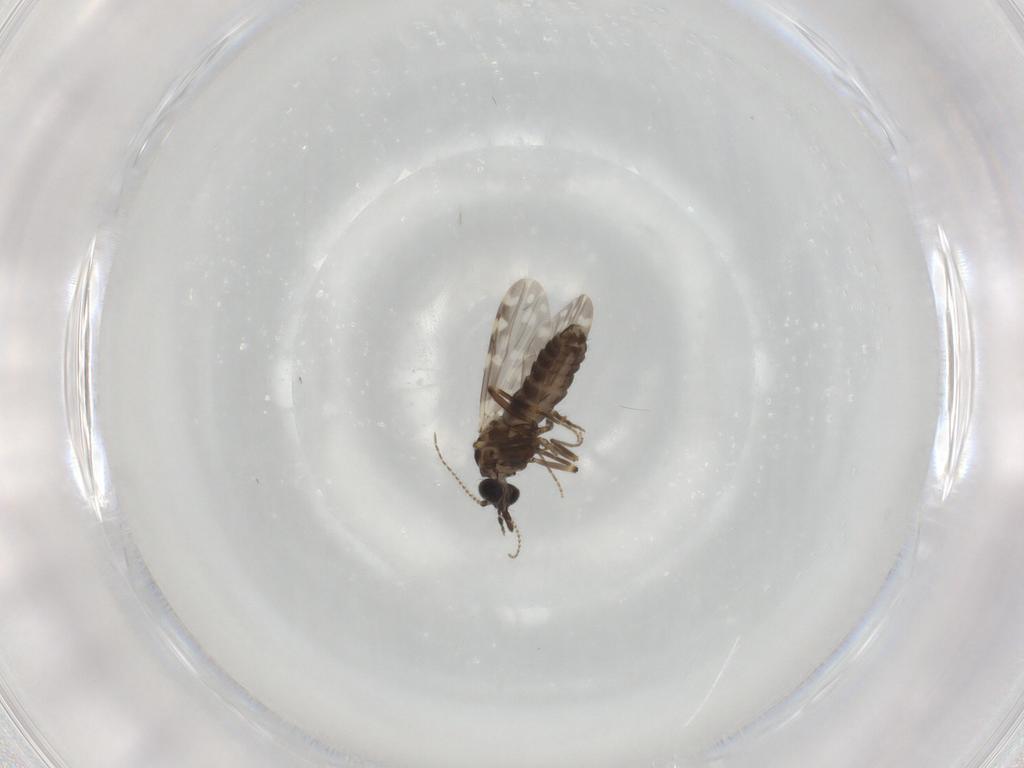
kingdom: Animalia
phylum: Arthropoda
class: Insecta
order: Diptera
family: Ceratopogonidae
